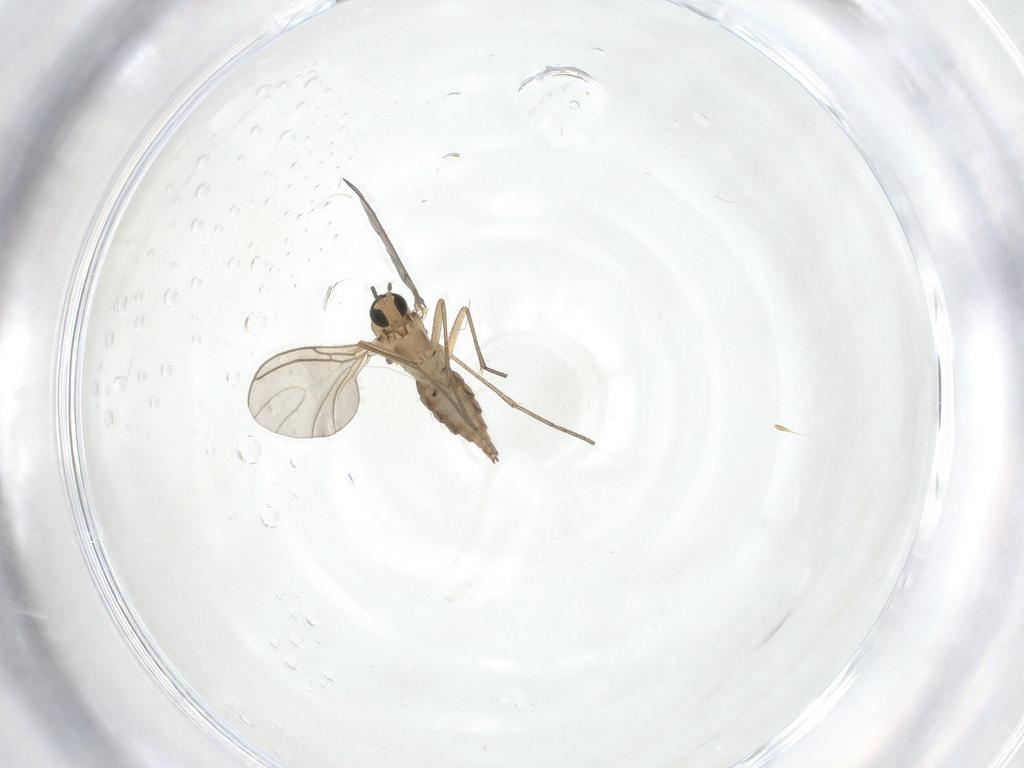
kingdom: Animalia
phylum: Arthropoda
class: Insecta
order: Diptera
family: Sciaridae
